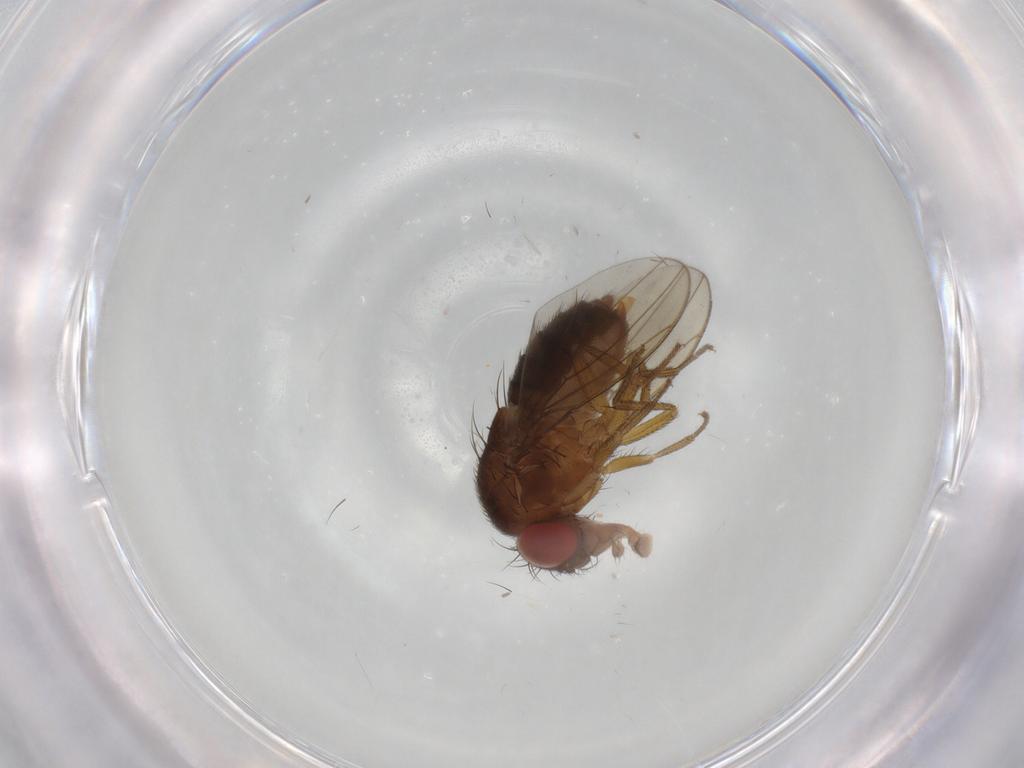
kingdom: Animalia
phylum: Arthropoda
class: Insecta
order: Diptera
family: Drosophilidae
